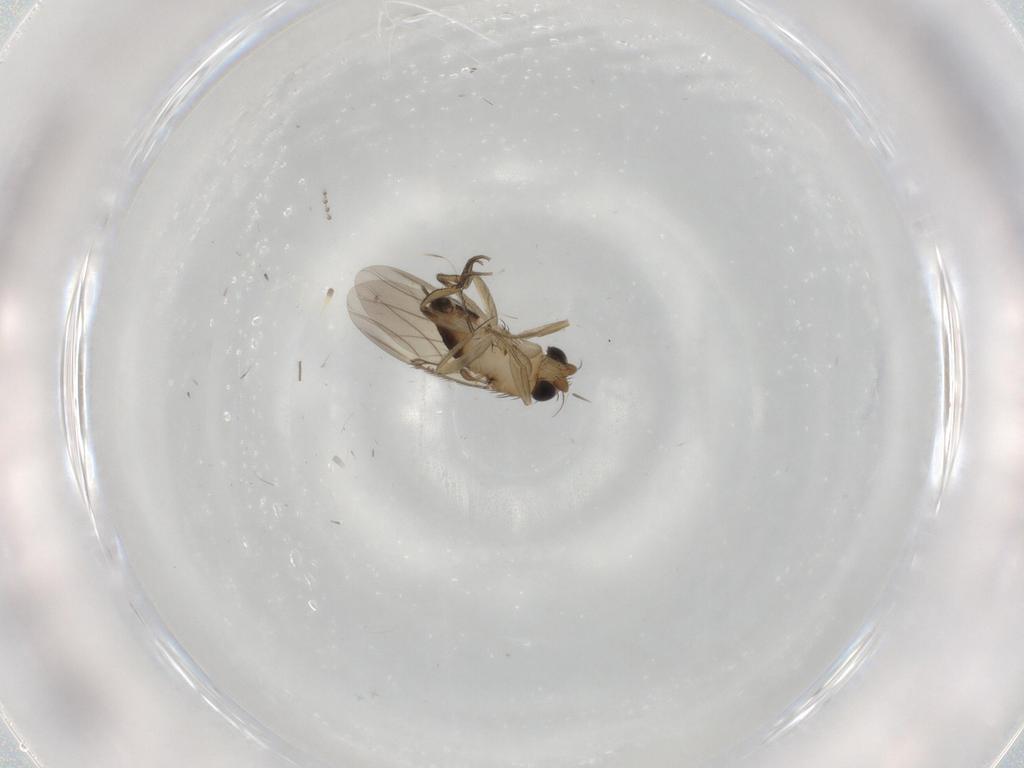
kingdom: Animalia
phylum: Arthropoda
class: Insecta
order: Diptera
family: Phoridae
